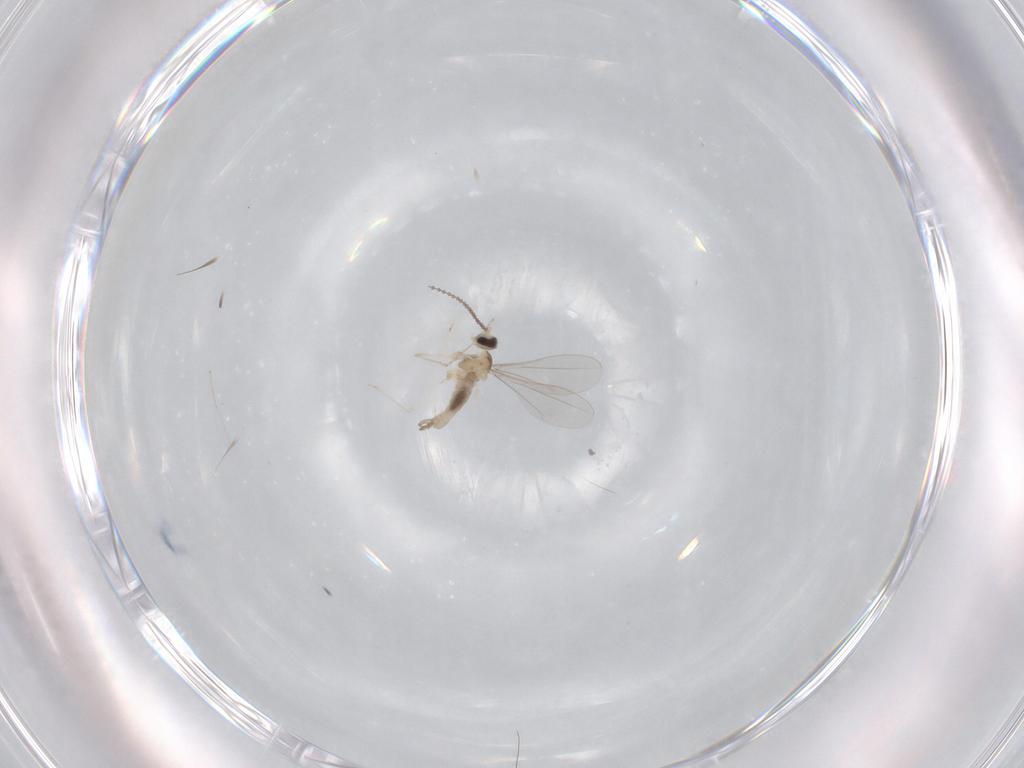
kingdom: Animalia
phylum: Arthropoda
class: Insecta
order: Diptera
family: Cecidomyiidae
